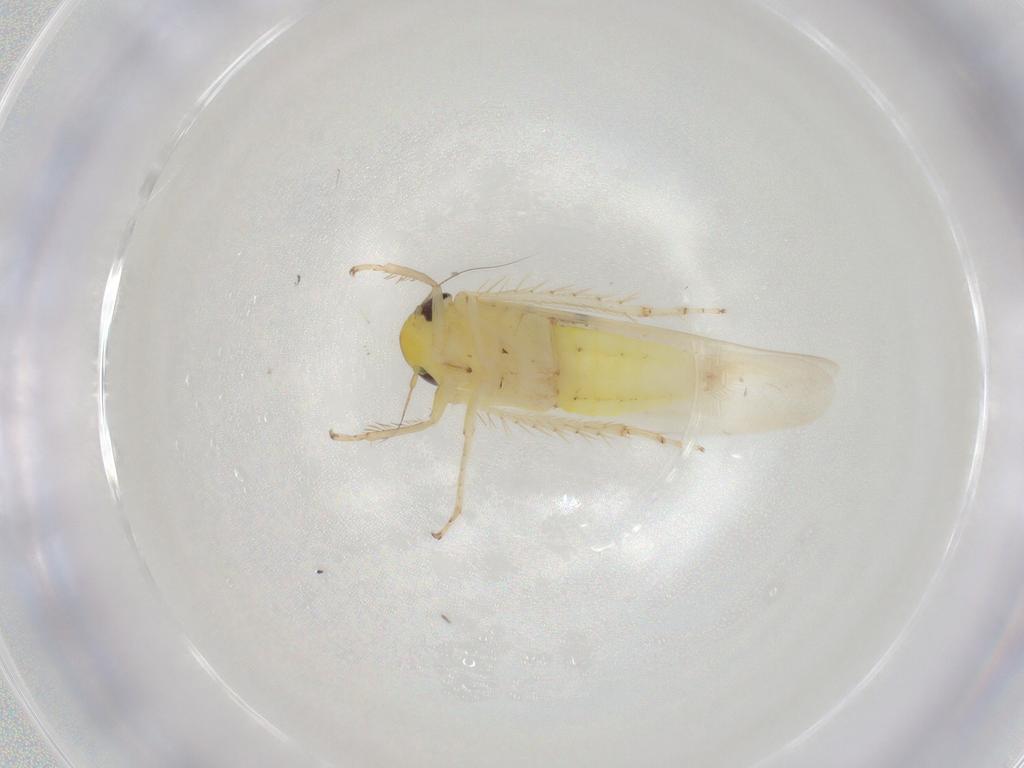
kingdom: Animalia
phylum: Arthropoda
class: Insecta
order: Hemiptera
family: Cicadellidae
